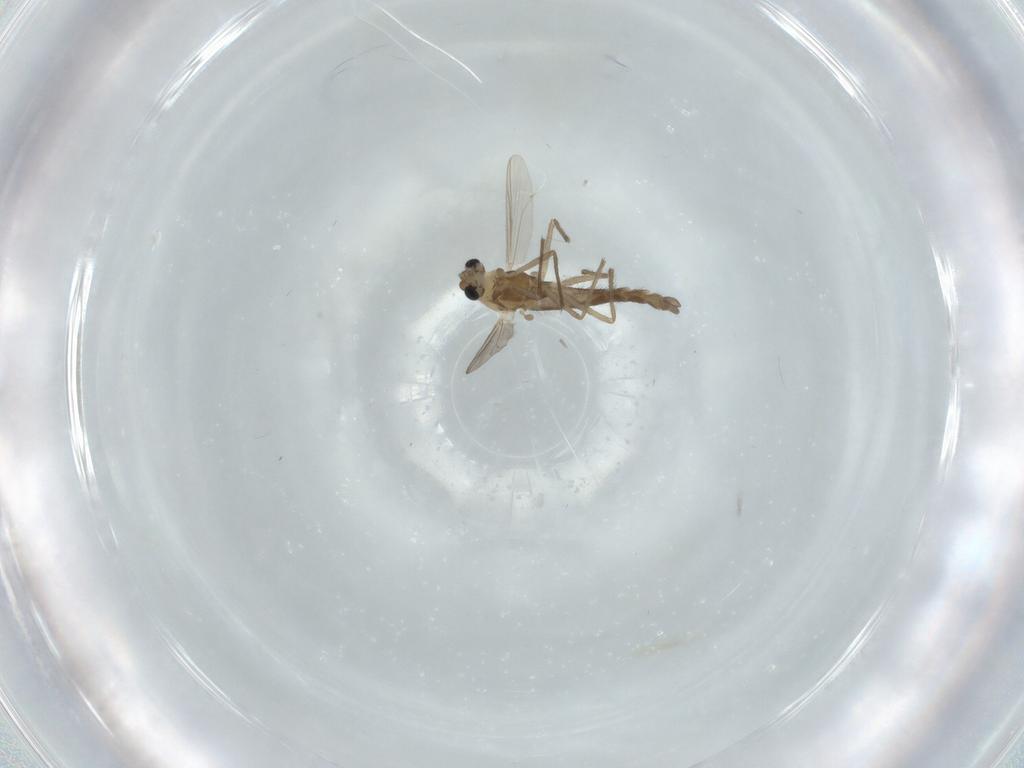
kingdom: Animalia
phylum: Arthropoda
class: Insecta
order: Diptera
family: Chironomidae
